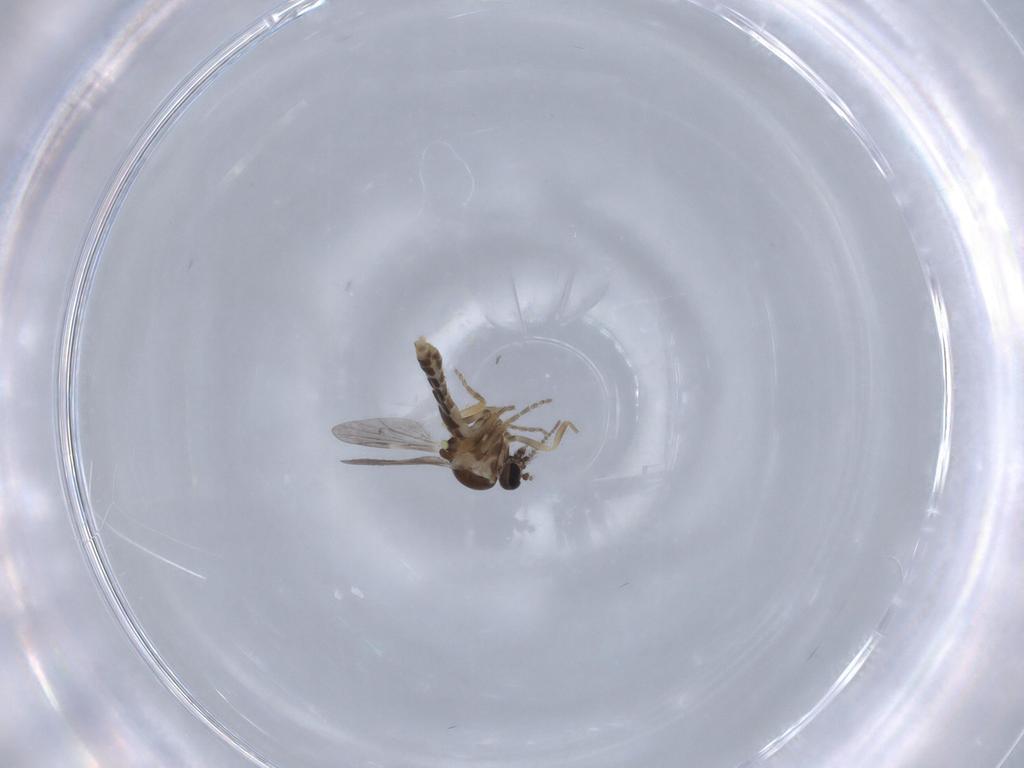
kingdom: Animalia
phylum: Arthropoda
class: Insecta
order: Diptera
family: Ceratopogonidae
